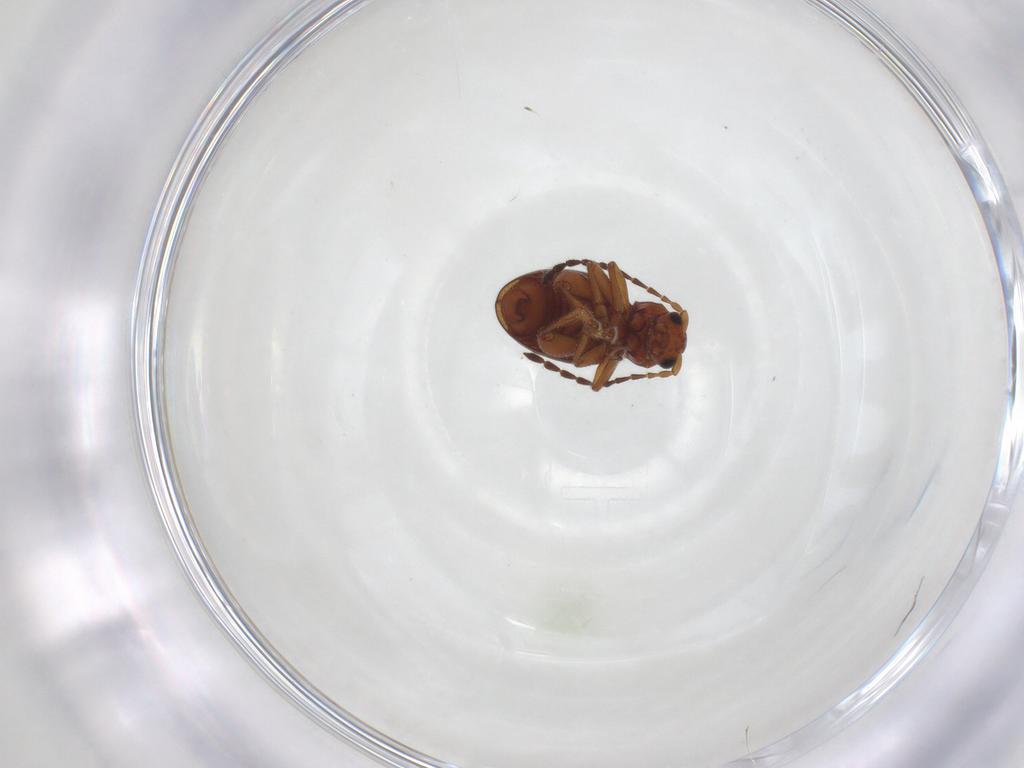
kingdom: Animalia
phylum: Arthropoda
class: Insecta
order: Coleoptera
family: Chrysomelidae
